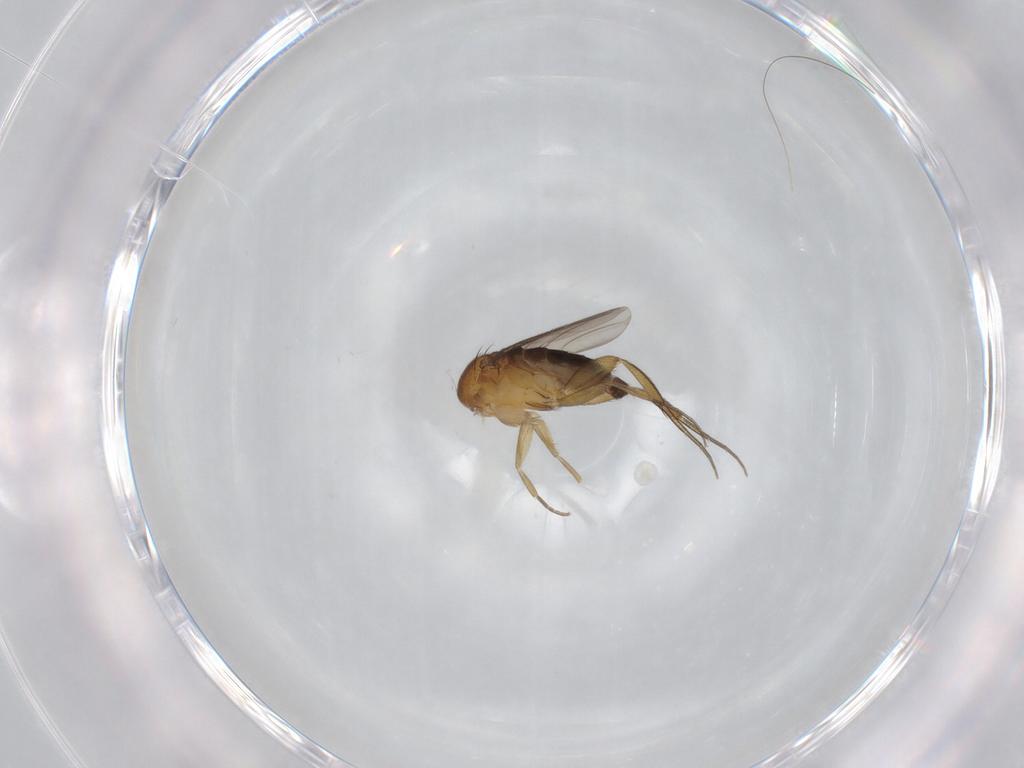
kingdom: Animalia
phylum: Arthropoda
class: Insecta
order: Diptera
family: Phoridae
